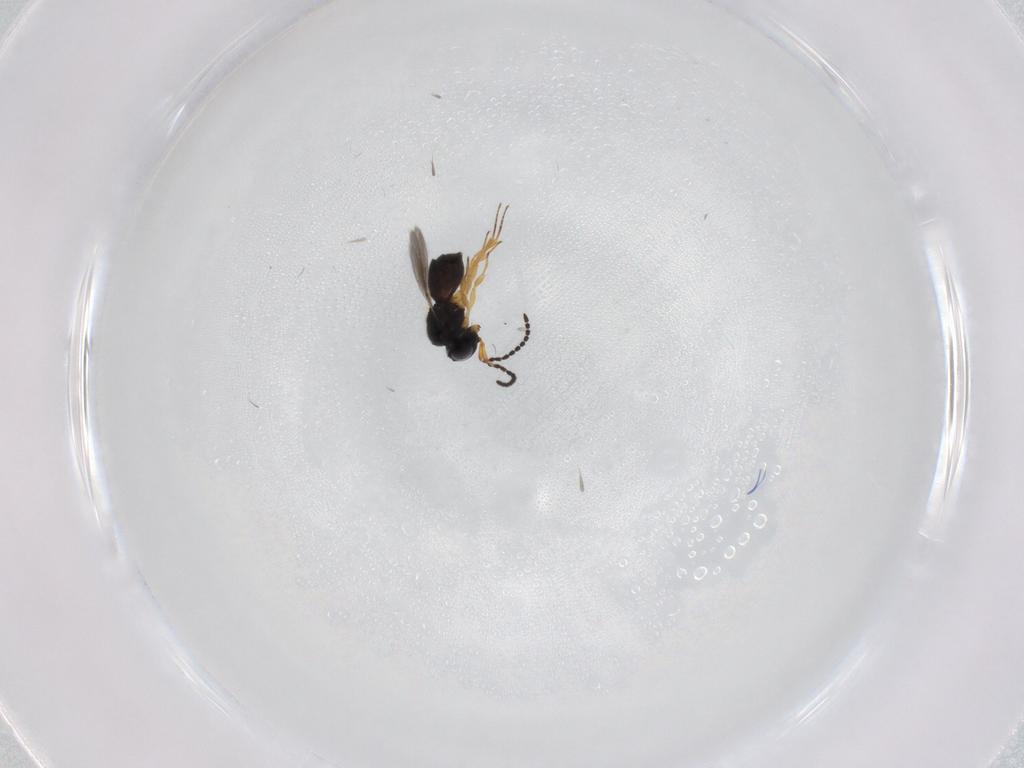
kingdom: Animalia
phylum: Arthropoda
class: Insecta
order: Hymenoptera
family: Scelionidae
